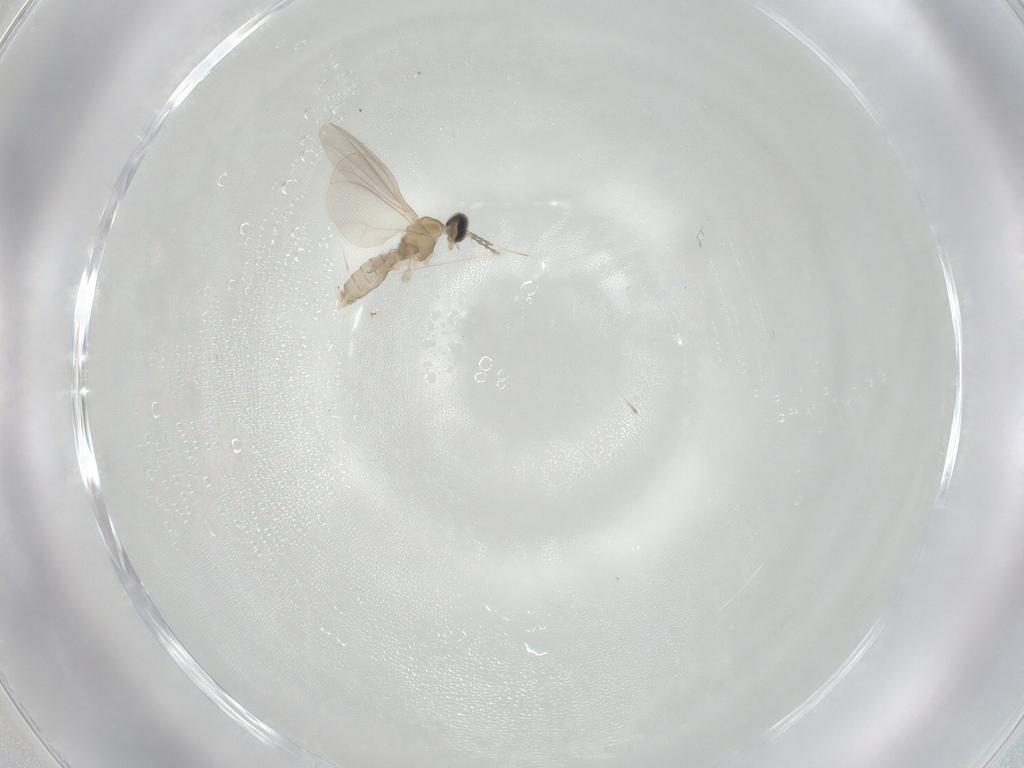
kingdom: Animalia
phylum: Arthropoda
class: Insecta
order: Diptera
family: Cecidomyiidae
